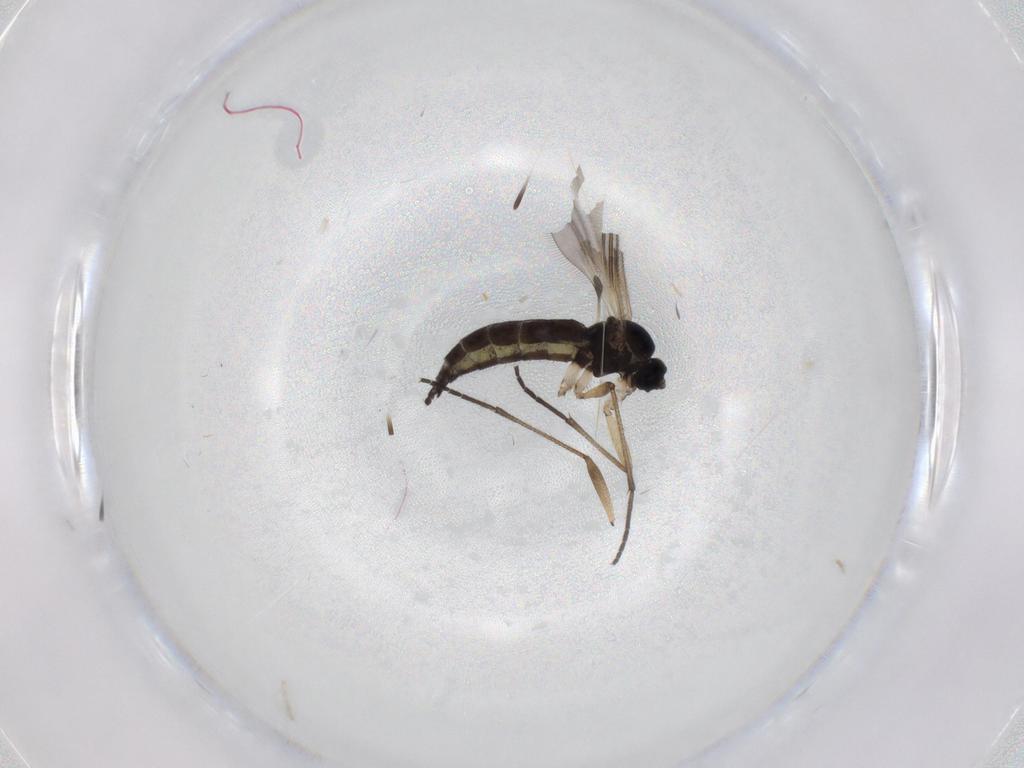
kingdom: Animalia
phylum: Arthropoda
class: Insecta
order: Diptera
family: Sciaridae
